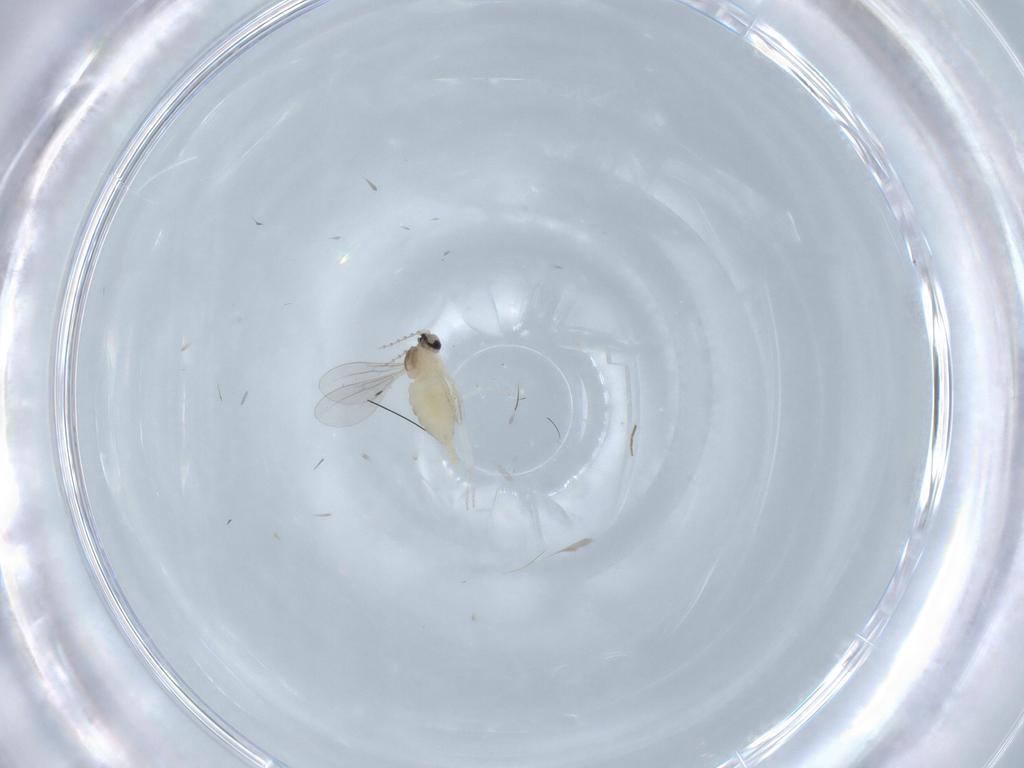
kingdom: Animalia
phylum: Arthropoda
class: Insecta
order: Diptera
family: Cecidomyiidae
